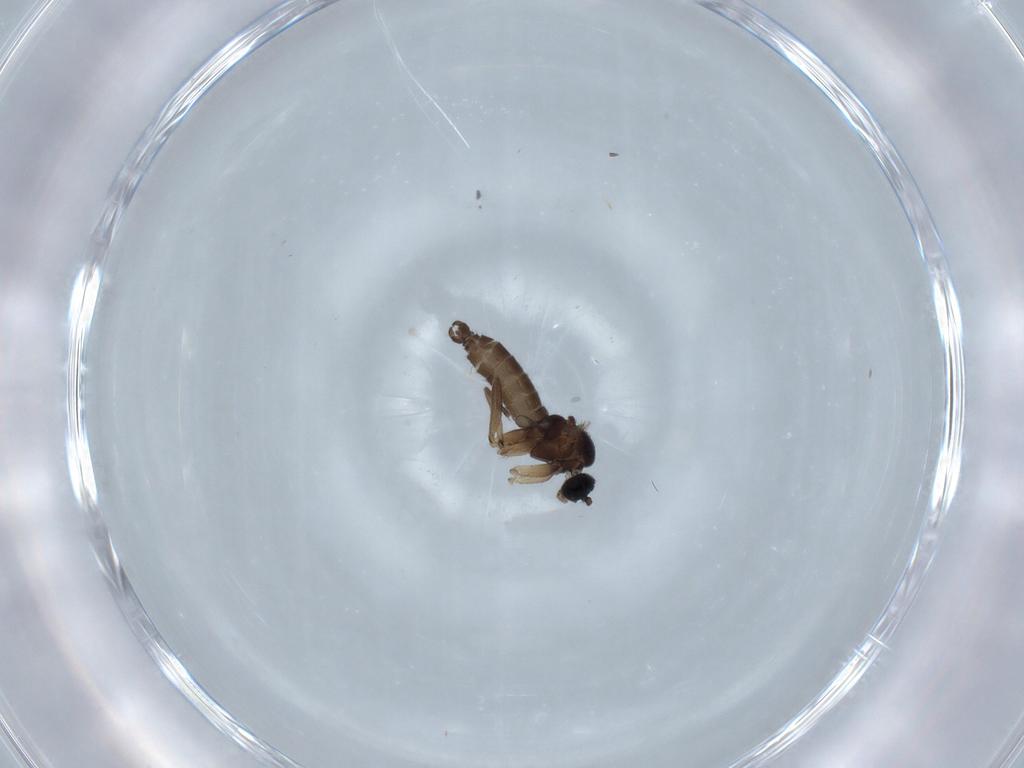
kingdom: Animalia
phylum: Arthropoda
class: Insecta
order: Diptera
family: Sciaridae
